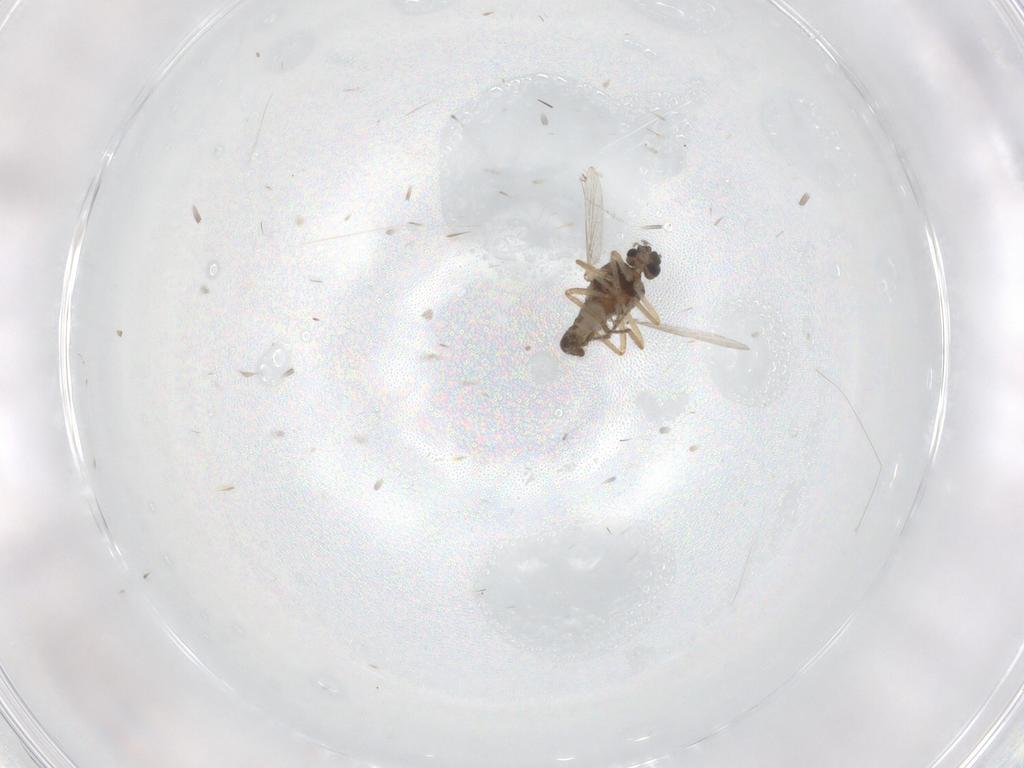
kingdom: Animalia
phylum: Arthropoda
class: Insecta
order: Diptera
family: Ceratopogonidae
